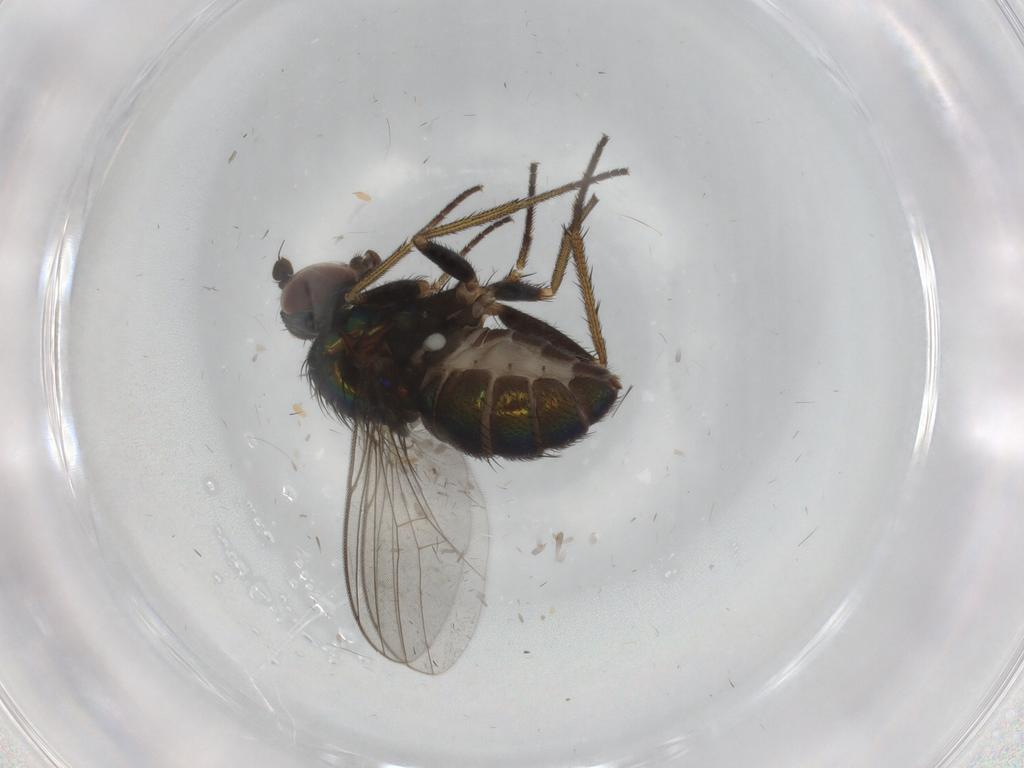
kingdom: Animalia
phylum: Arthropoda
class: Insecta
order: Diptera
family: Dolichopodidae
